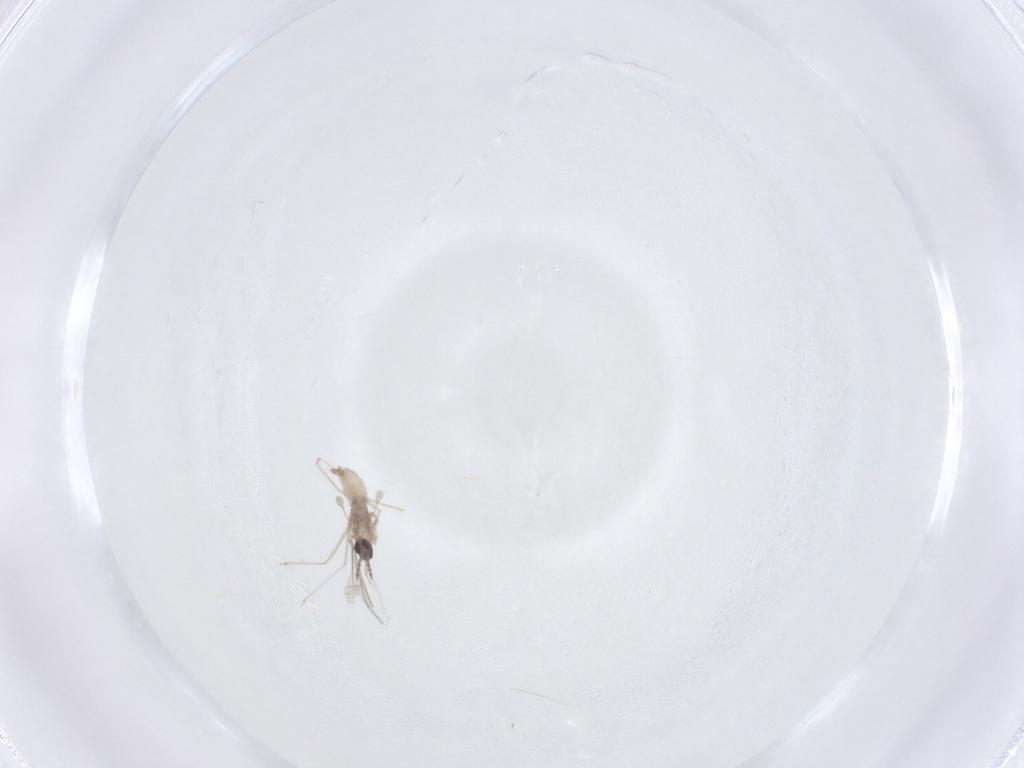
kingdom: Animalia
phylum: Arthropoda
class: Insecta
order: Diptera
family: Cecidomyiidae
